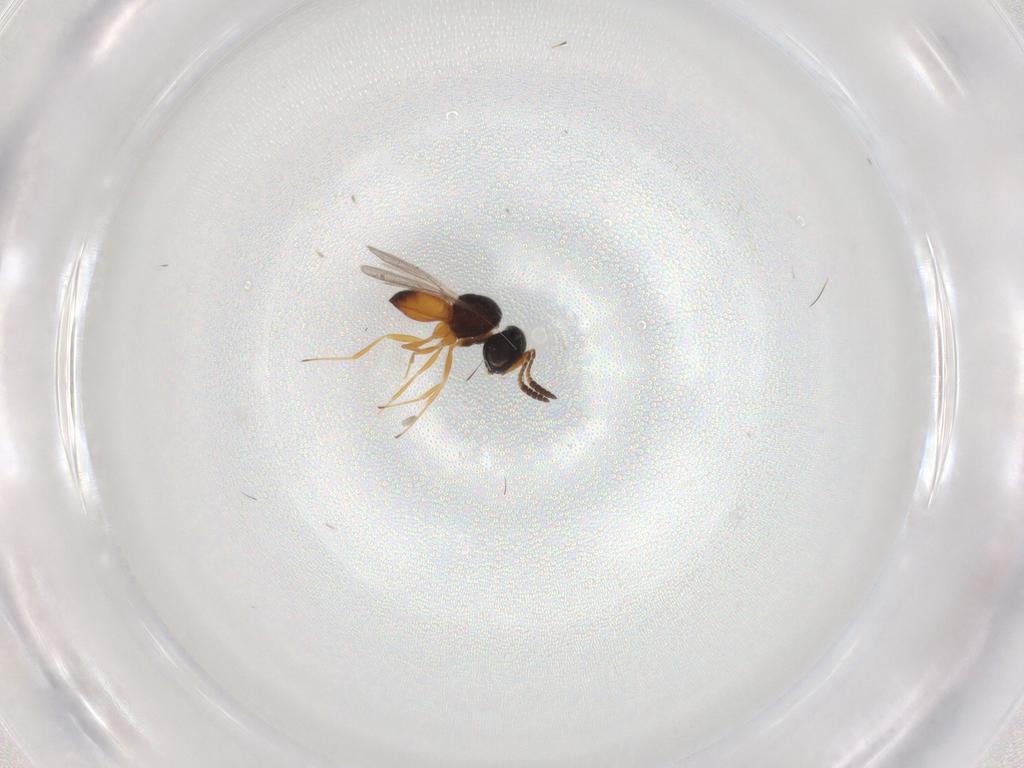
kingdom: Animalia
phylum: Arthropoda
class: Insecta
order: Hymenoptera
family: Scelionidae
